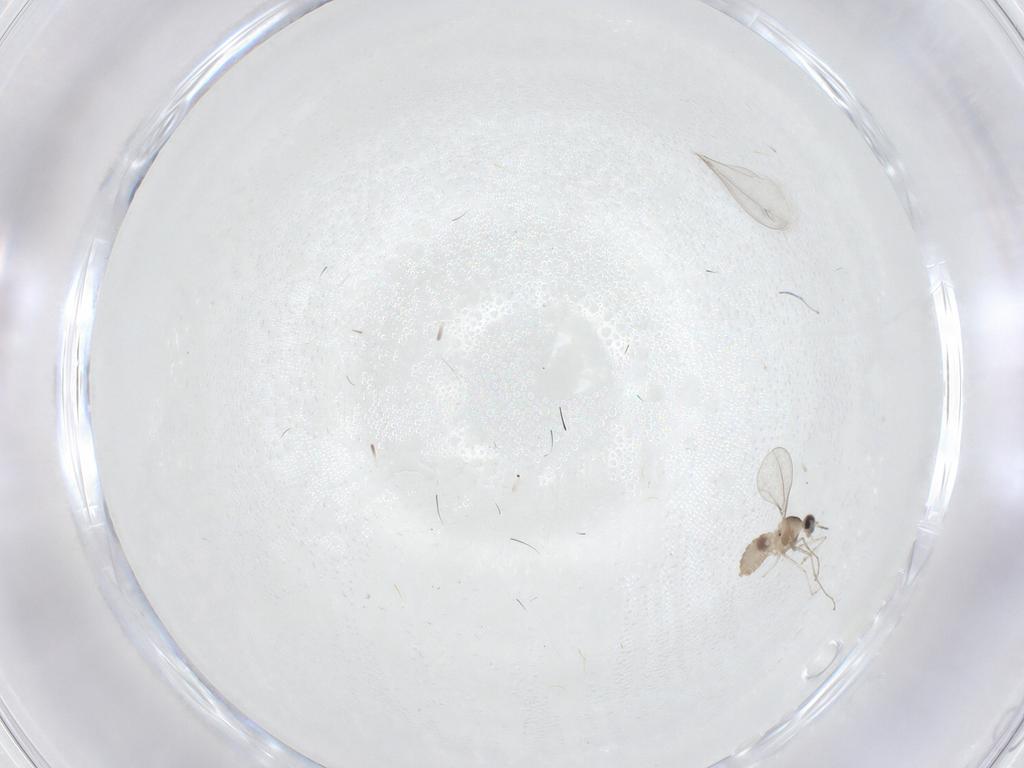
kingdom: Animalia
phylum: Arthropoda
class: Insecta
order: Diptera
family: Cecidomyiidae
